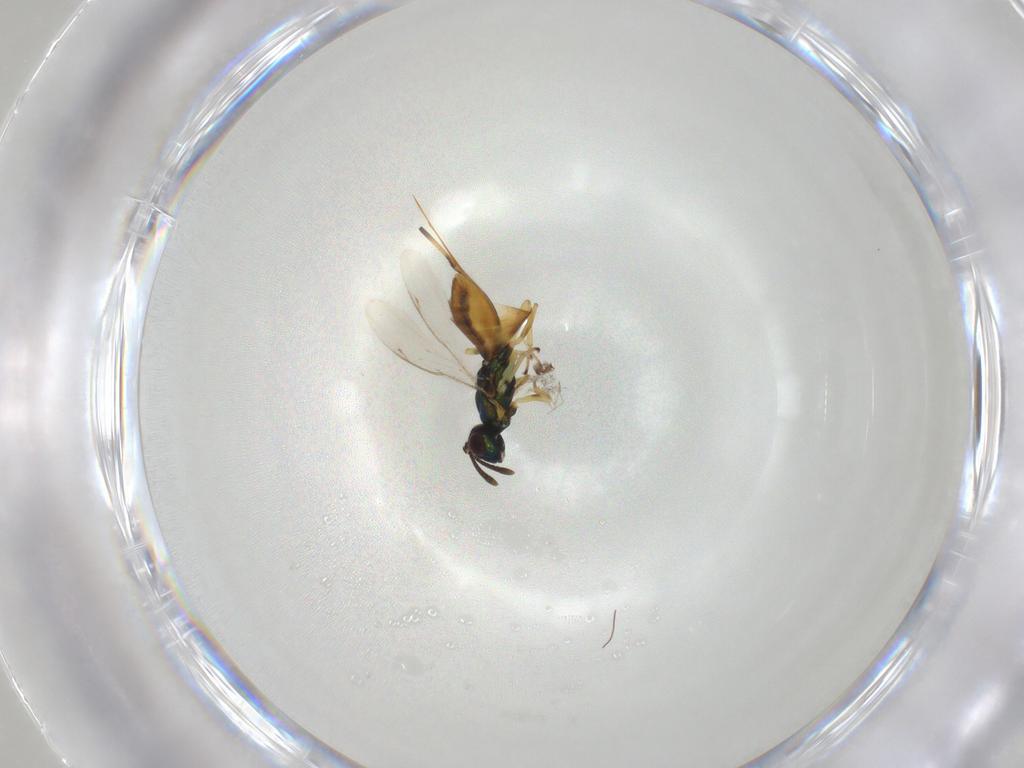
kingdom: Animalia
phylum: Arthropoda
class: Insecta
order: Hymenoptera
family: Eupelmidae
